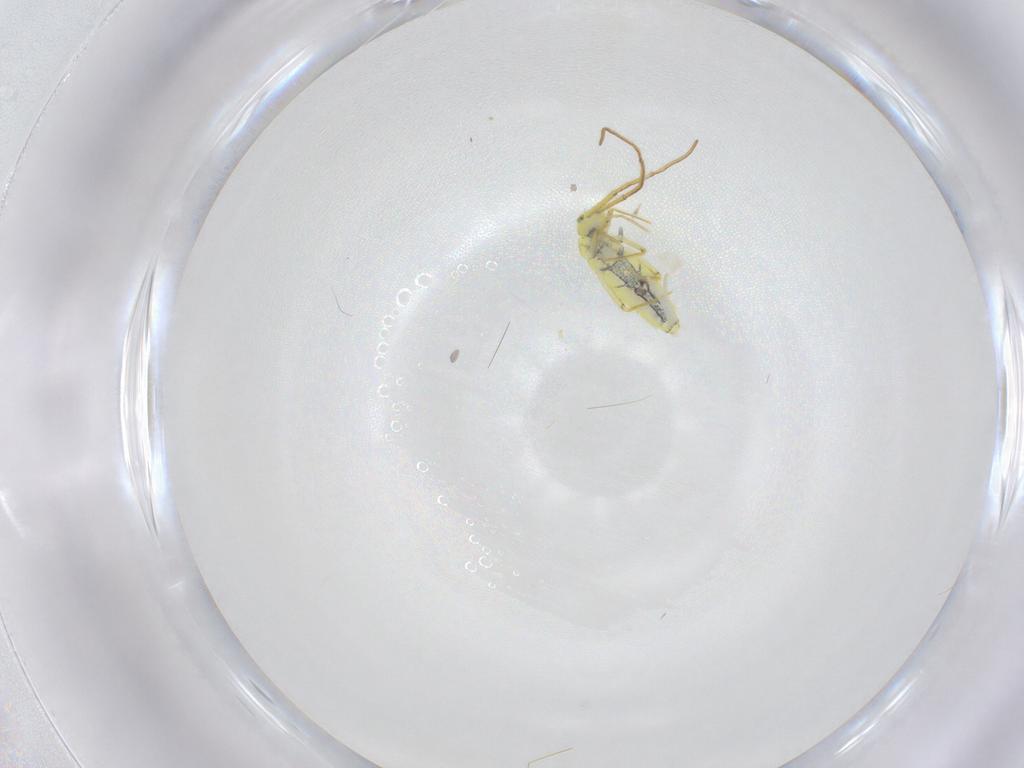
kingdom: Animalia
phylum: Arthropoda
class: Collembola
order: Entomobryomorpha
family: Entomobryidae
